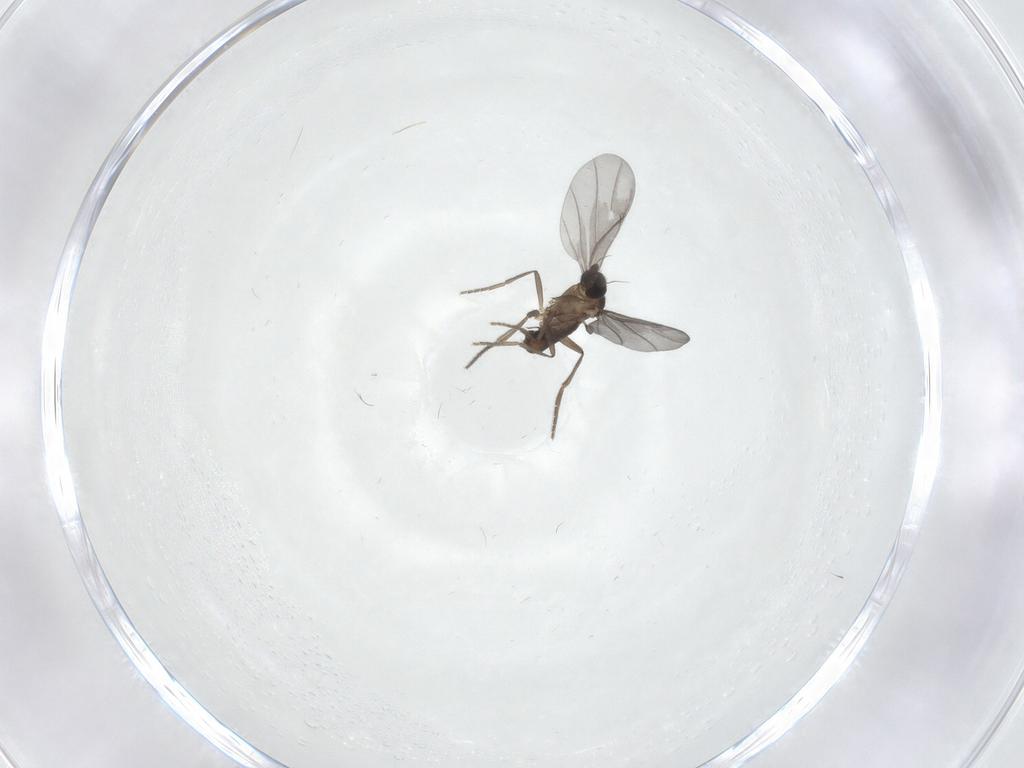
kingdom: Animalia
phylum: Arthropoda
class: Insecta
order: Diptera
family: Phoridae
